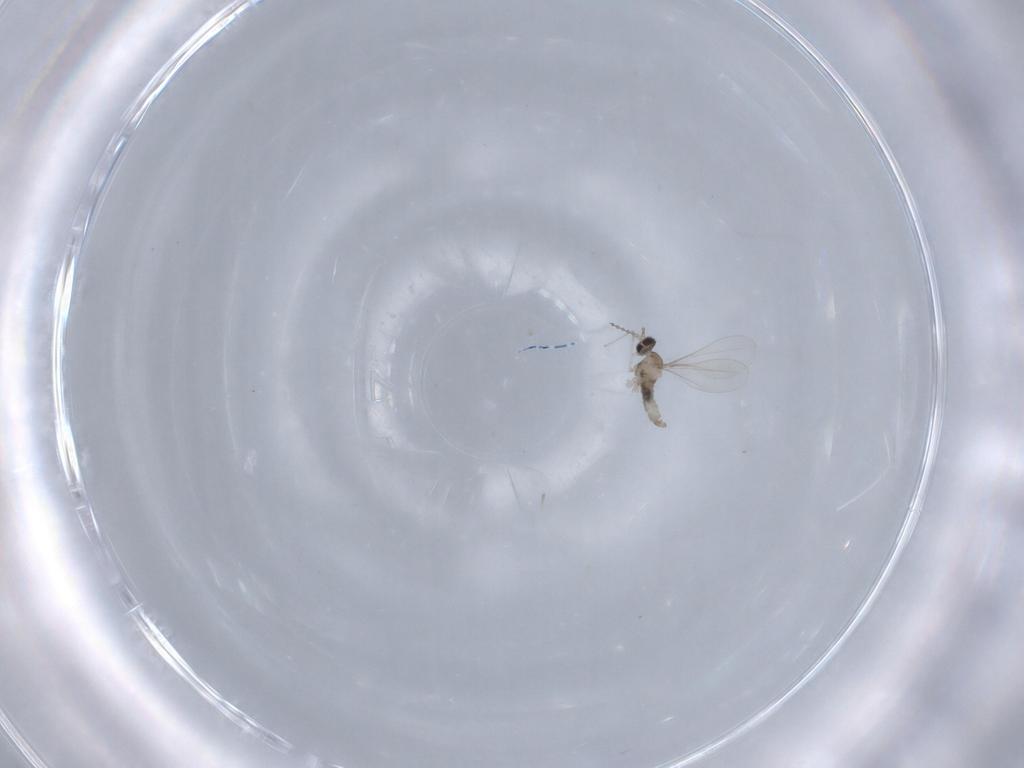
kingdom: Animalia
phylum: Arthropoda
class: Insecta
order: Diptera
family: Cecidomyiidae
